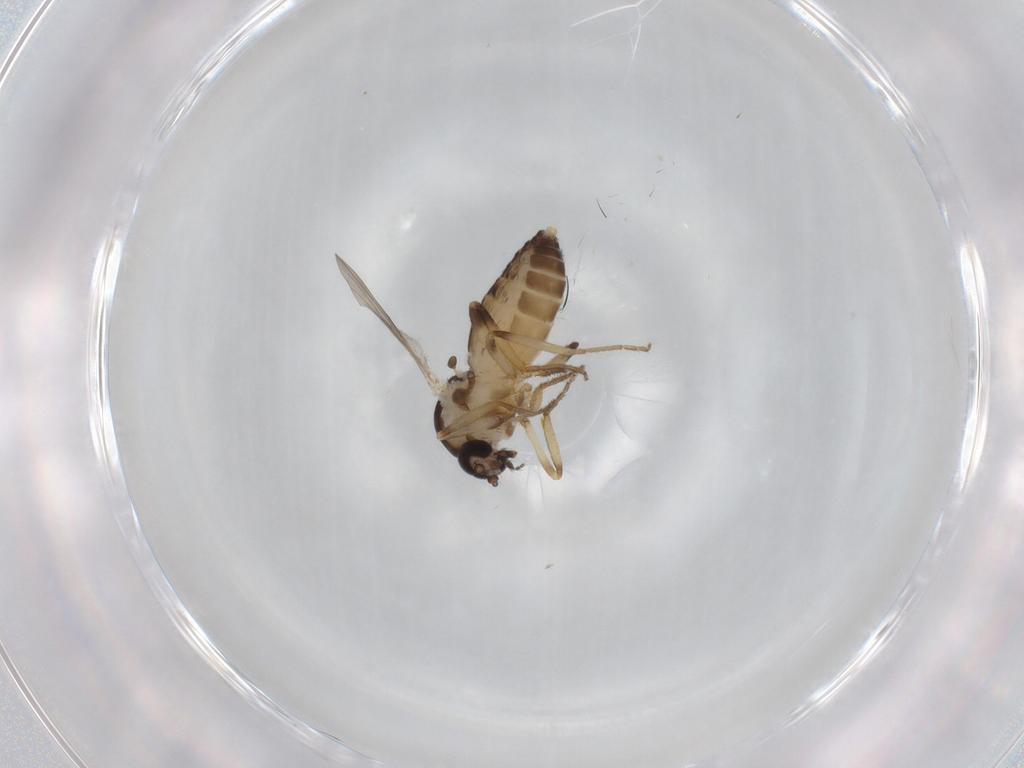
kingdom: Animalia
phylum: Arthropoda
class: Insecta
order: Diptera
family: Ceratopogonidae
